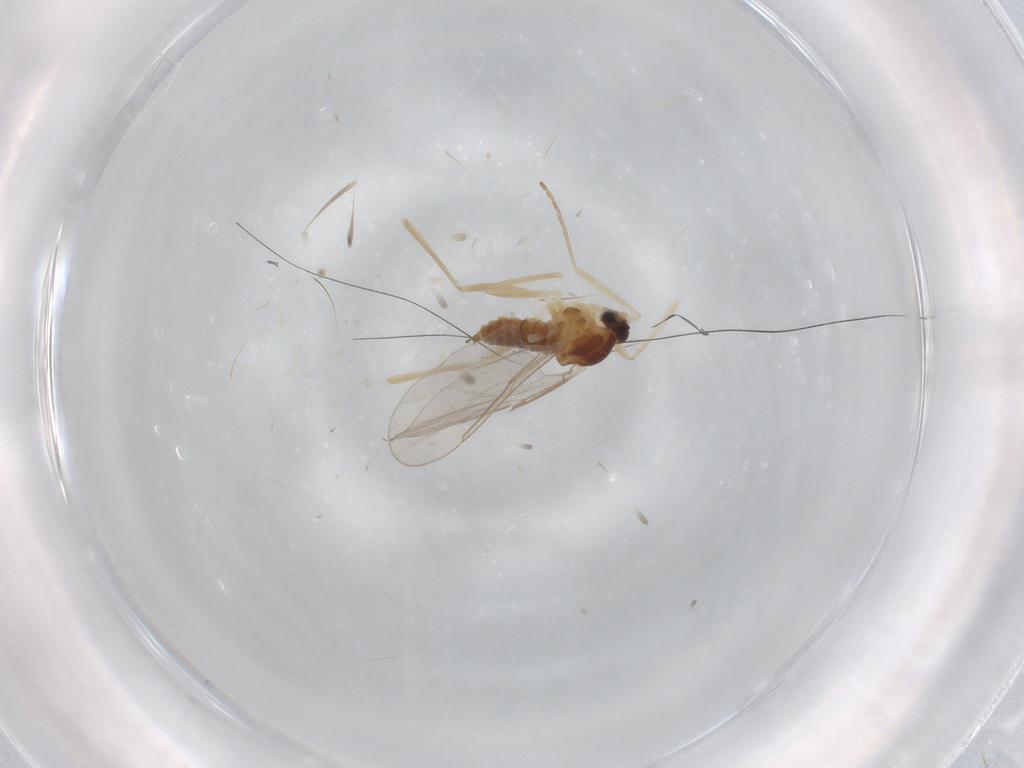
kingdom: Animalia
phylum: Arthropoda
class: Insecta
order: Diptera
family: Cecidomyiidae
